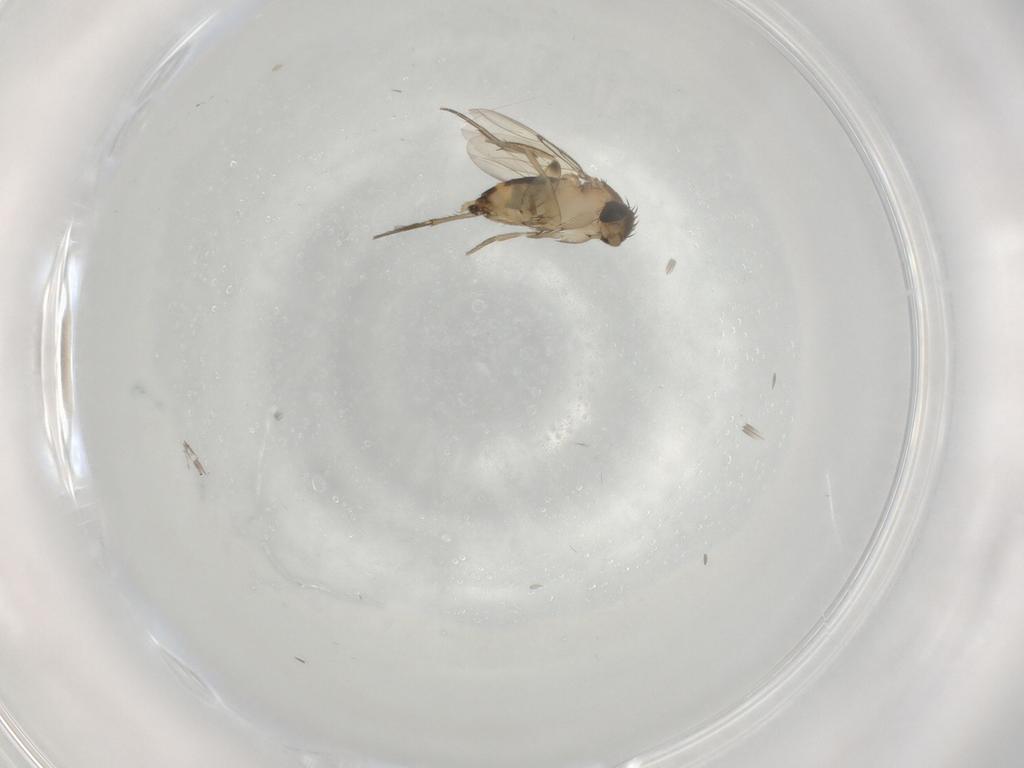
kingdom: Animalia
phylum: Arthropoda
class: Insecta
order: Diptera
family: Phoridae
